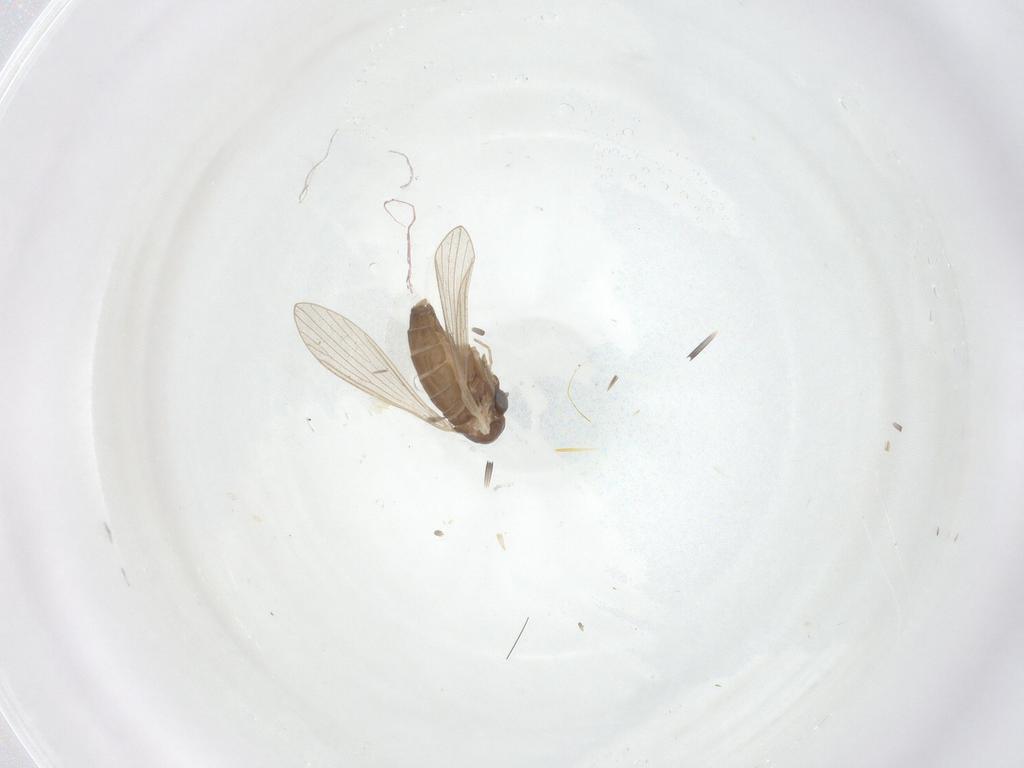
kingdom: Animalia
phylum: Arthropoda
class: Insecta
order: Diptera
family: Psychodidae
